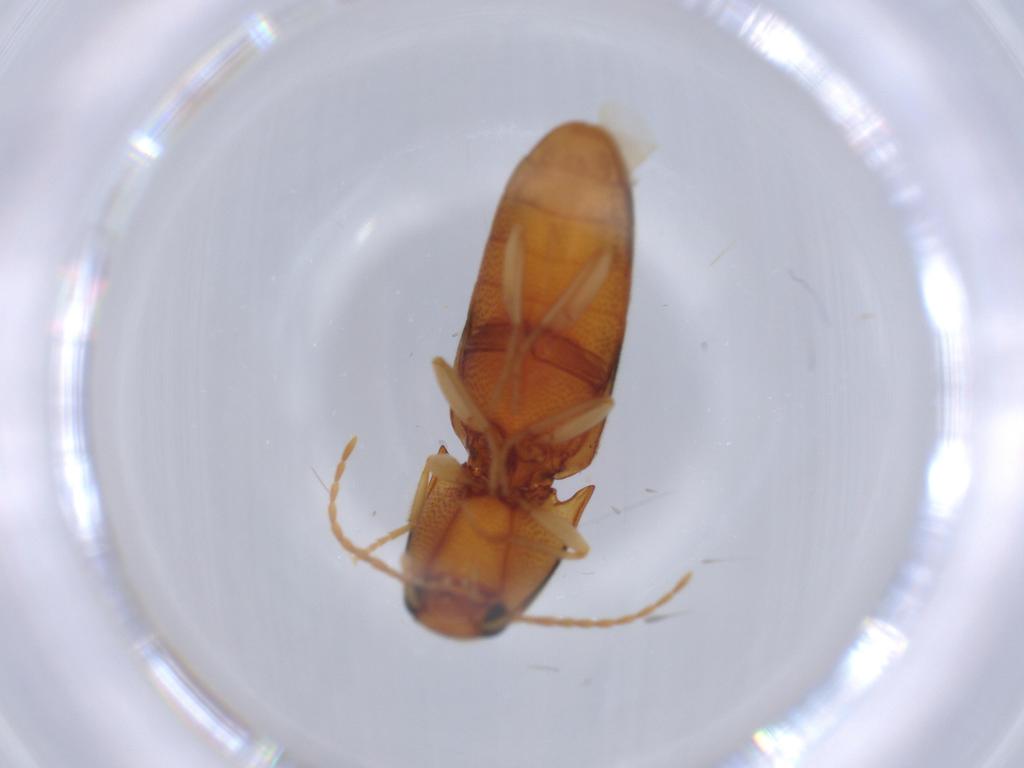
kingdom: Animalia
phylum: Arthropoda
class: Insecta
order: Coleoptera
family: Elateridae
